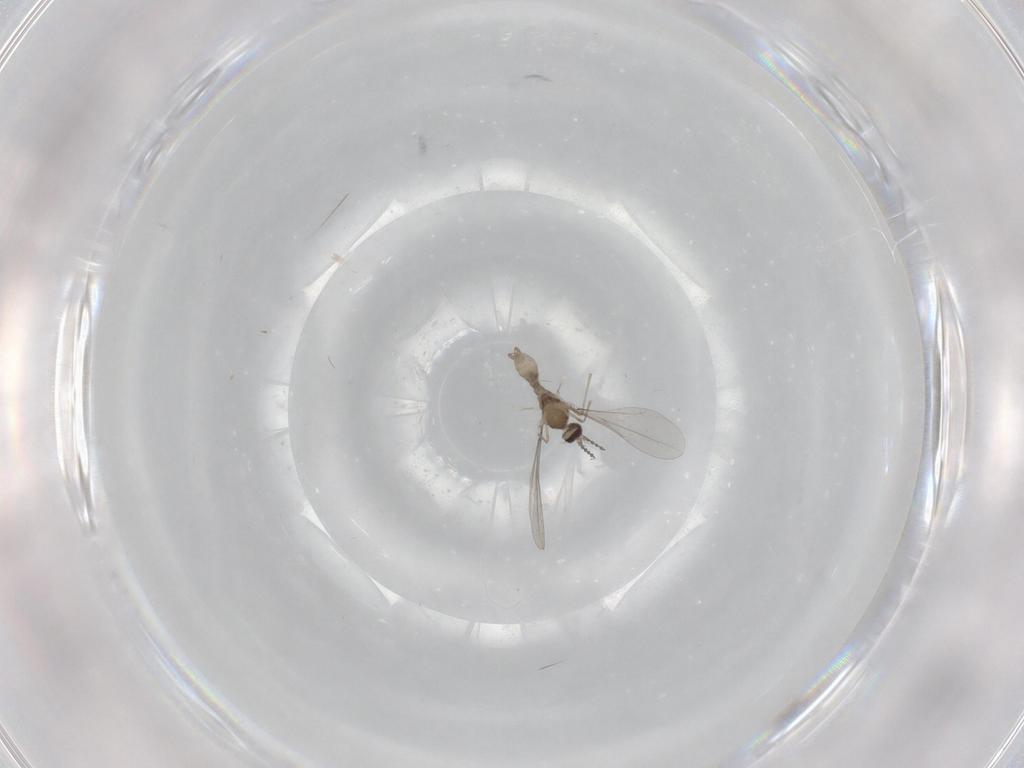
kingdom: Animalia
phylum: Arthropoda
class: Insecta
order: Diptera
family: Cecidomyiidae
